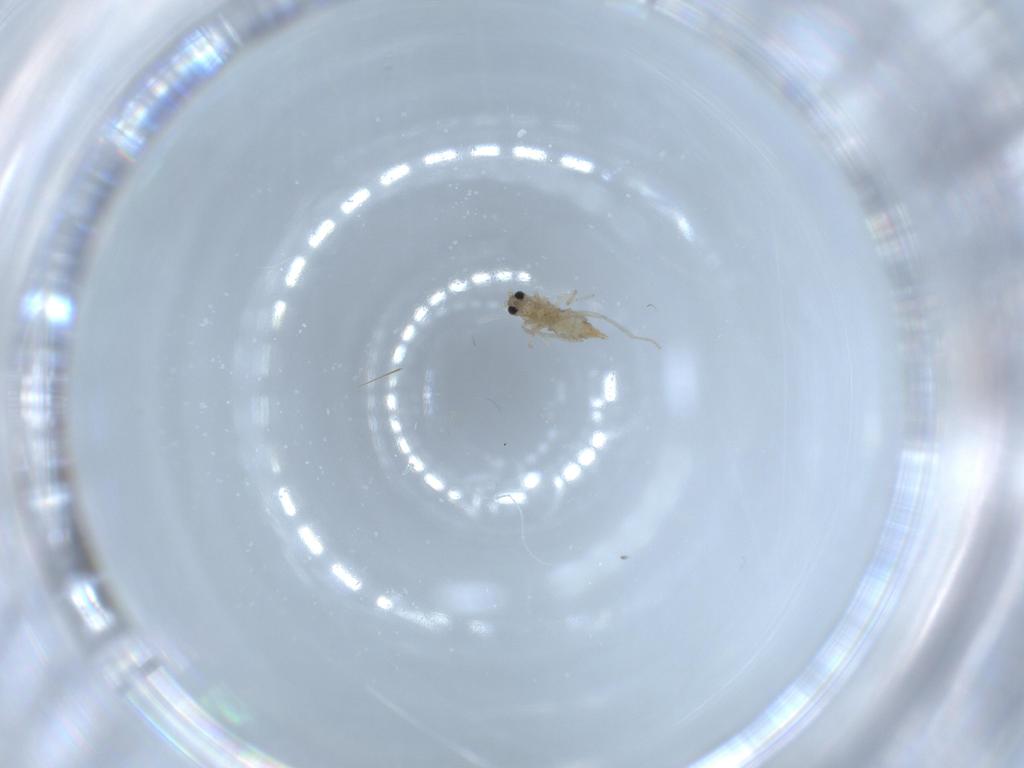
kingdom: Animalia
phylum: Arthropoda
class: Insecta
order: Diptera
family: Cecidomyiidae
